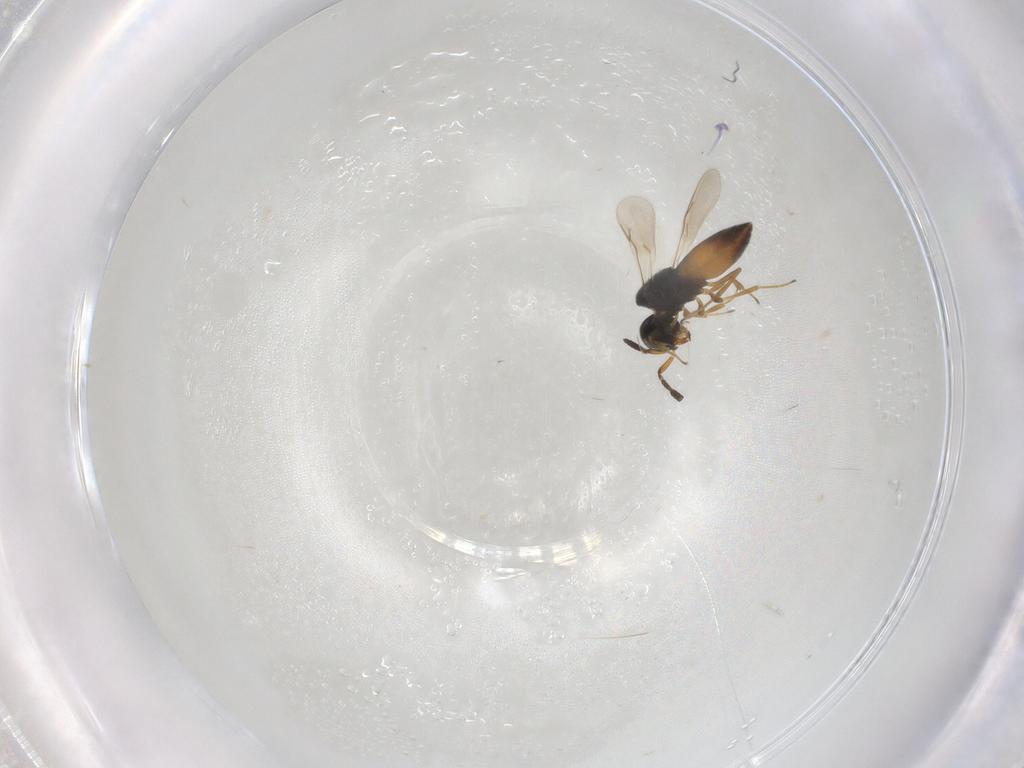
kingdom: Animalia
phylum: Arthropoda
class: Insecta
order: Hymenoptera
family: Scelionidae
